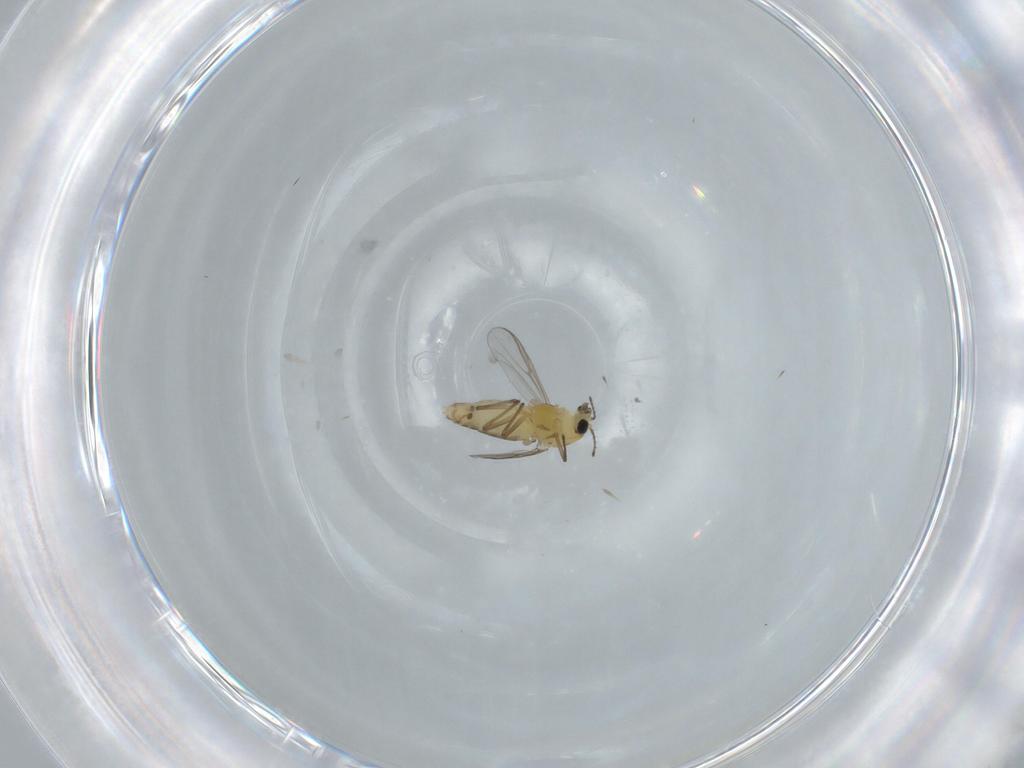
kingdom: Animalia
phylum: Arthropoda
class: Insecta
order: Diptera
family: Chironomidae
